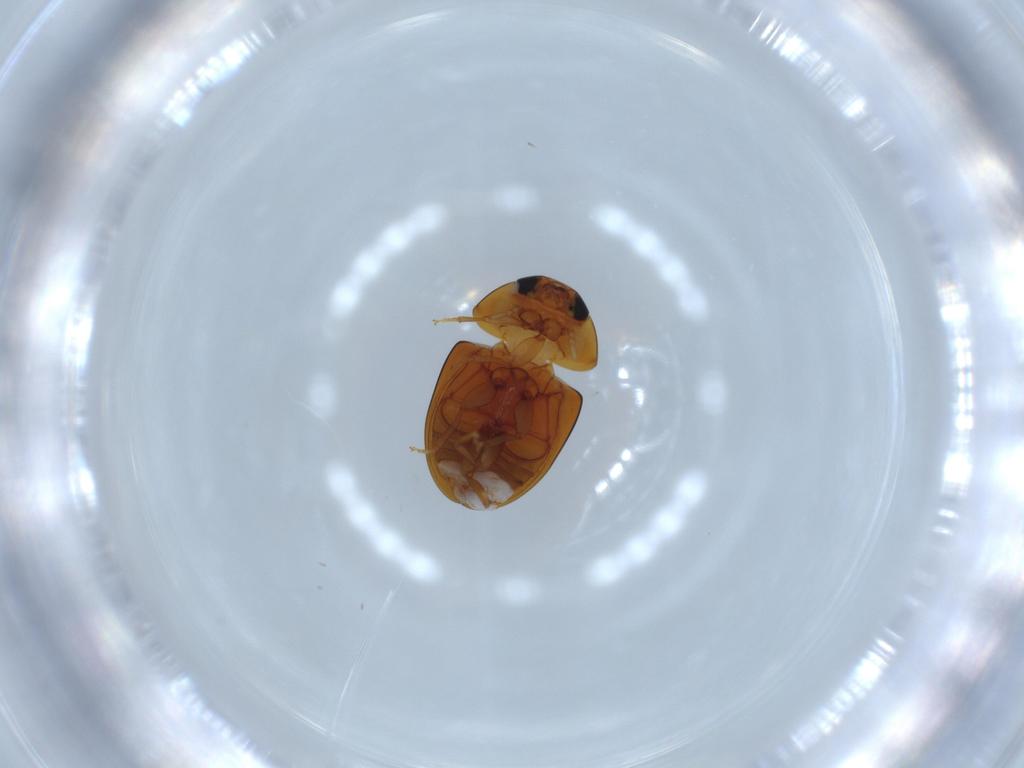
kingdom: Animalia
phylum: Arthropoda
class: Insecta
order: Coleoptera
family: Phalacridae
